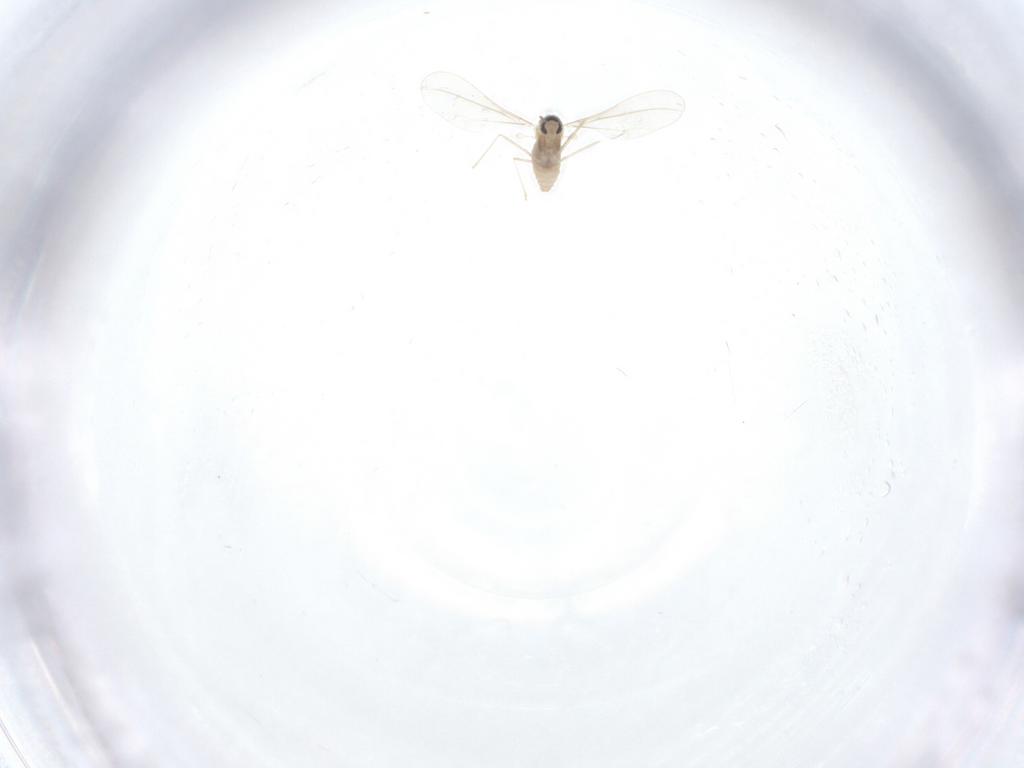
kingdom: Animalia
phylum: Arthropoda
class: Insecta
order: Diptera
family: Cecidomyiidae
